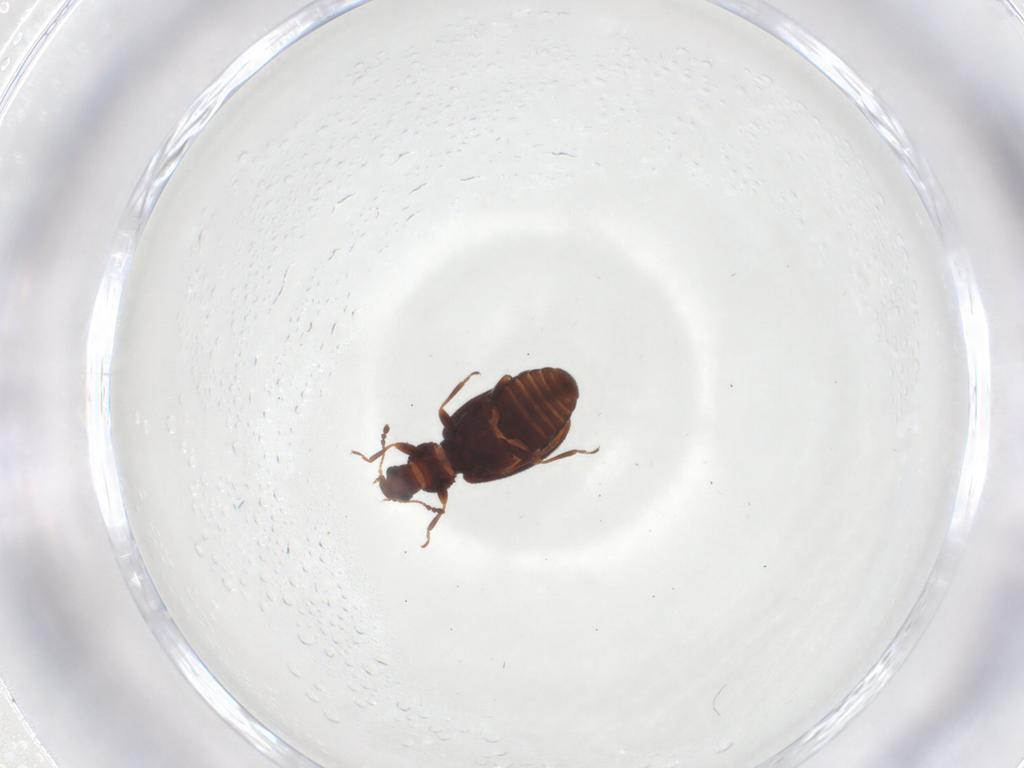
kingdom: Animalia
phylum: Arthropoda
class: Insecta
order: Coleoptera
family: Latridiidae
